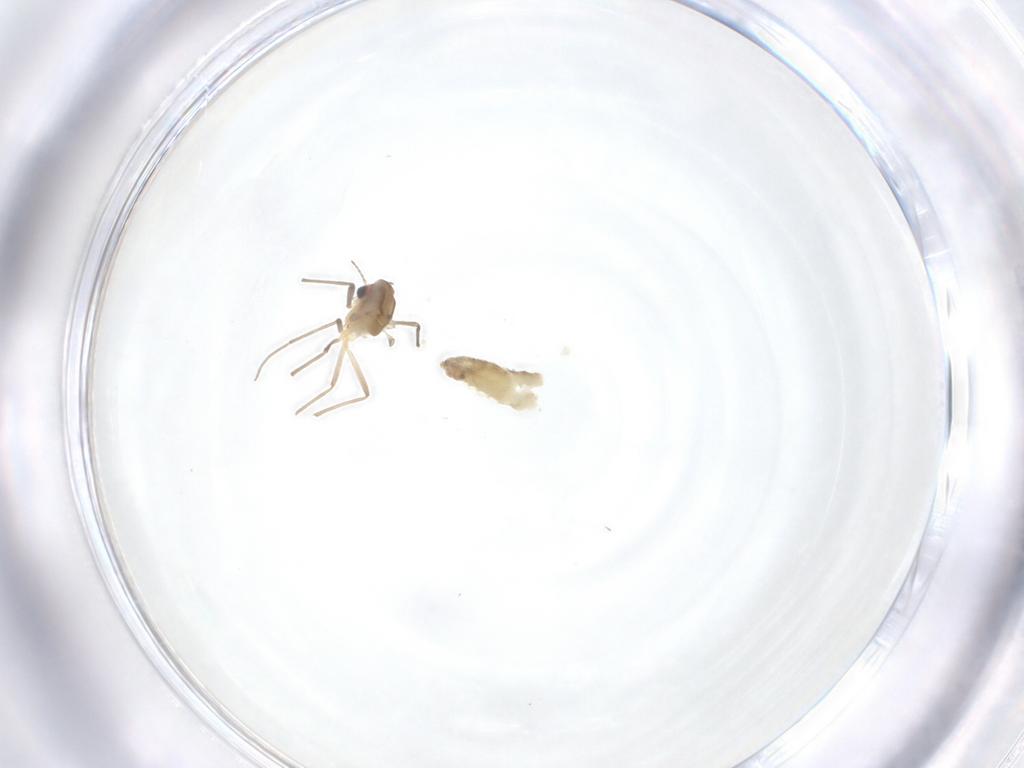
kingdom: Animalia
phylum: Arthropoda
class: Insecta
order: Diptera
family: Chironomidae
